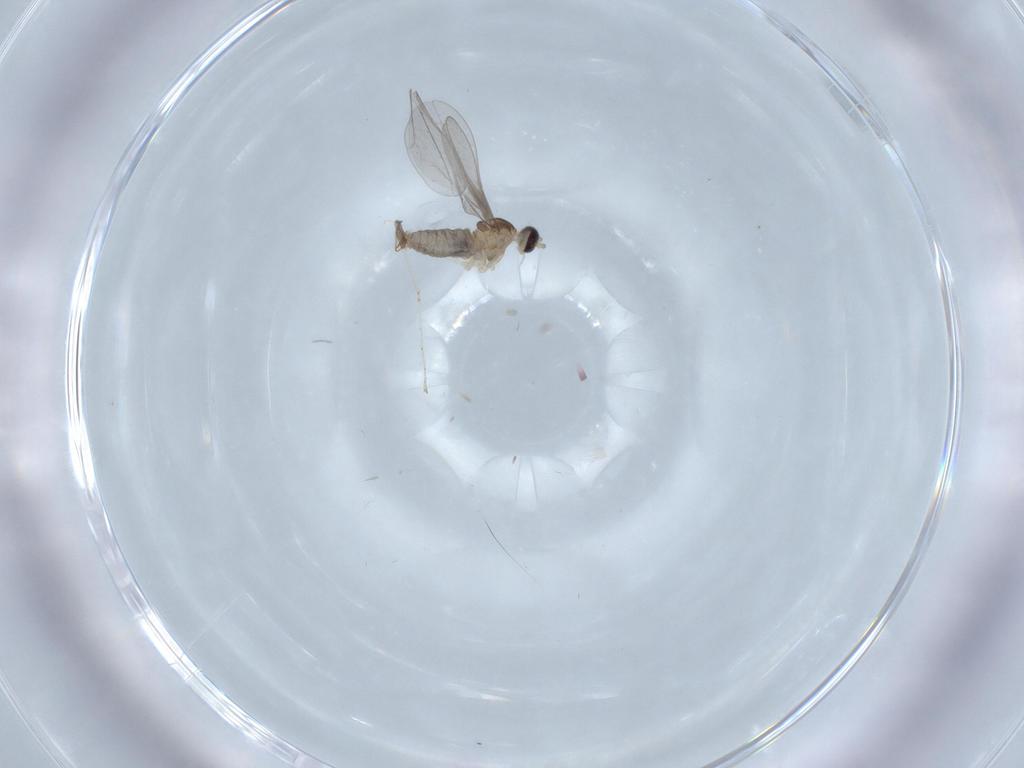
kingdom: Animalia
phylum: Arthropoda
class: Insecta
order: Diptera
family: Cecidomyiidae
